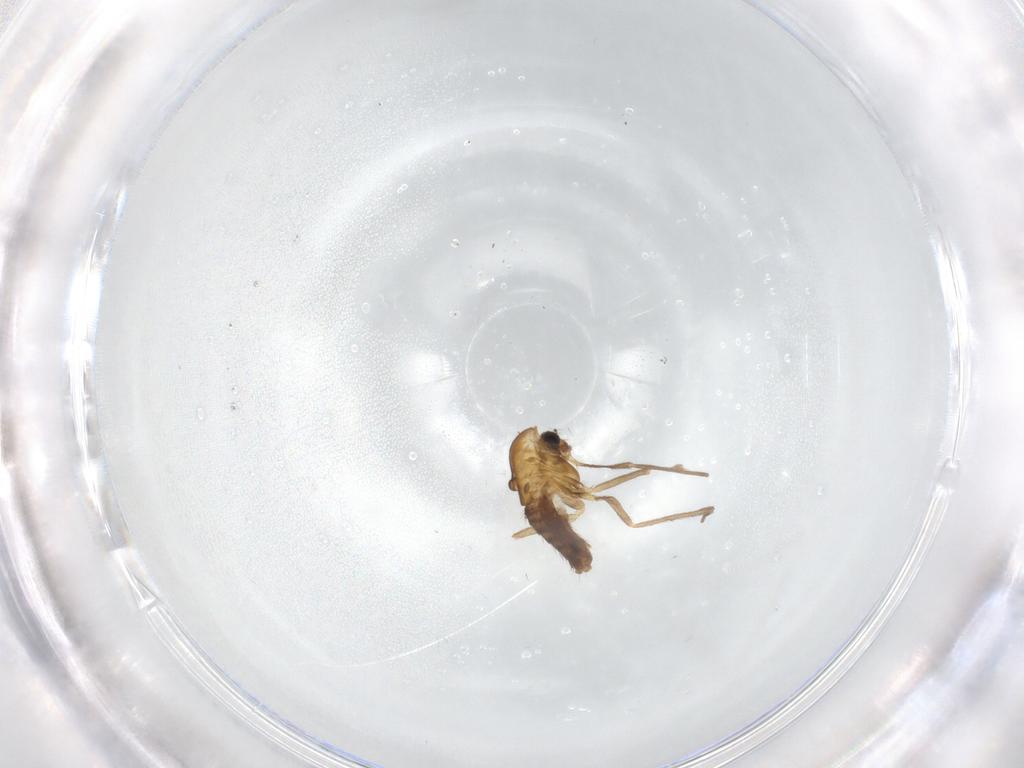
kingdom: Animalia
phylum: Arthropoda
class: Insecta
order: Diptera
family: Chironomidae
